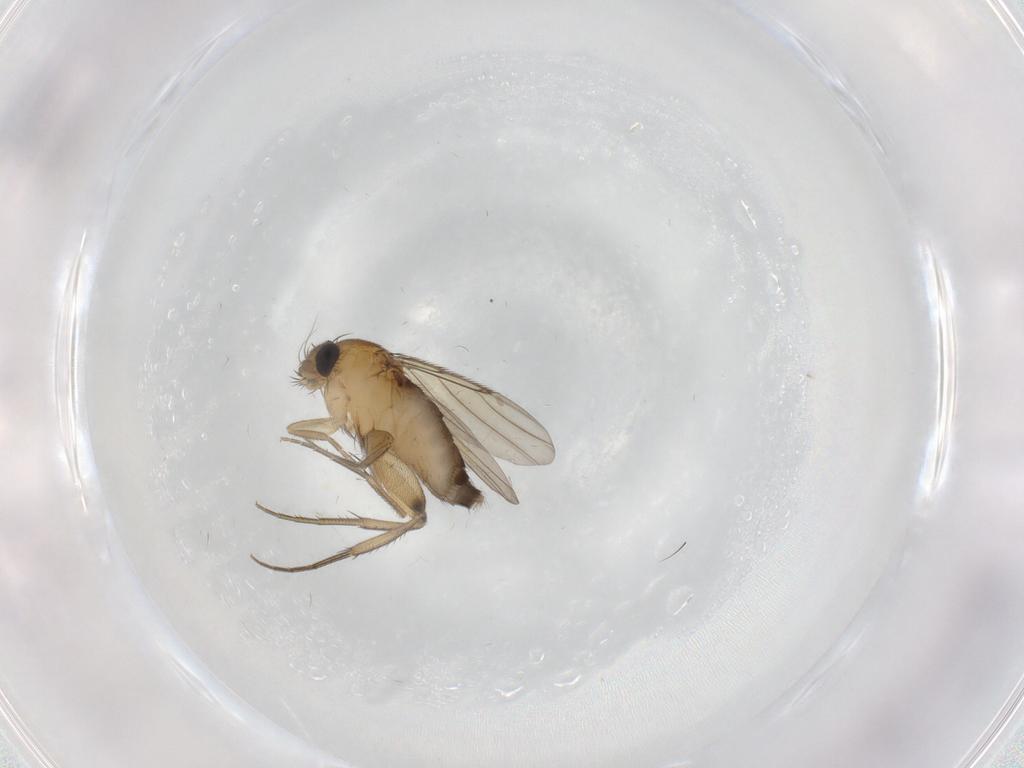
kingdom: Animalia
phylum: Arthropoda
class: Insecta
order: Diptera
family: Phoridae
